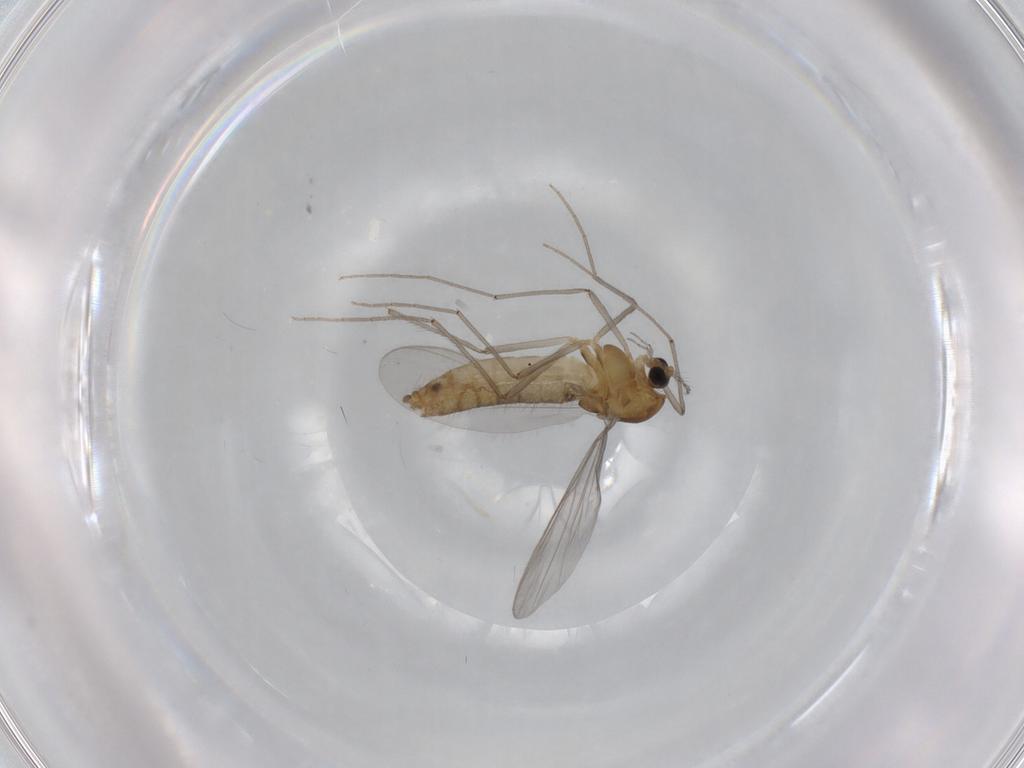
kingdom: Animalia
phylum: Arthropoda
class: Insecta
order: Diptera
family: Chironomidae
